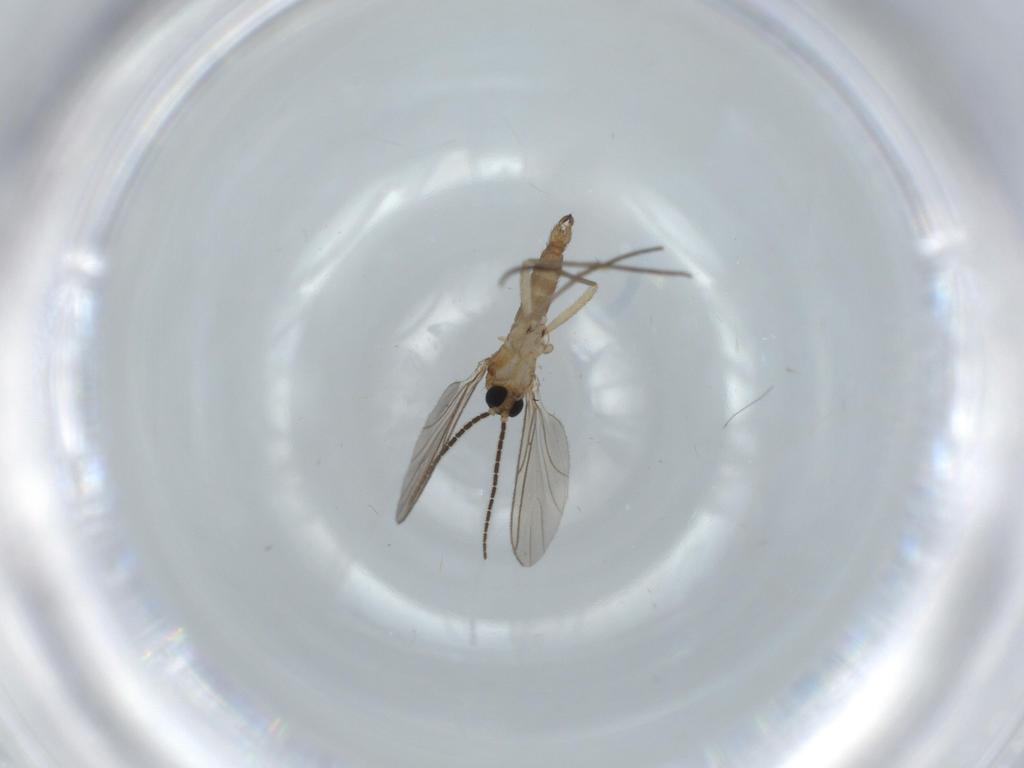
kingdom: Animalia
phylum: Arthropoda
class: Insecta
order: Diptera
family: Sciaridae
